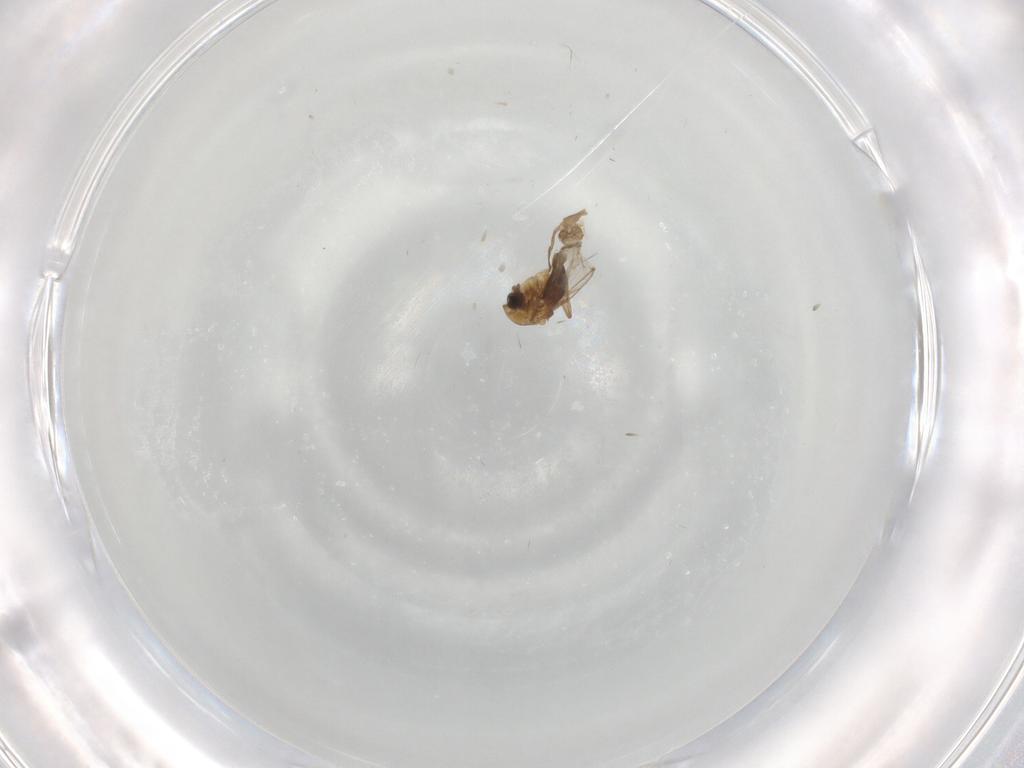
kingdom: Animalia
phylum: Arthropoda
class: Insecta
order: Diptera
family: Chironomidae
